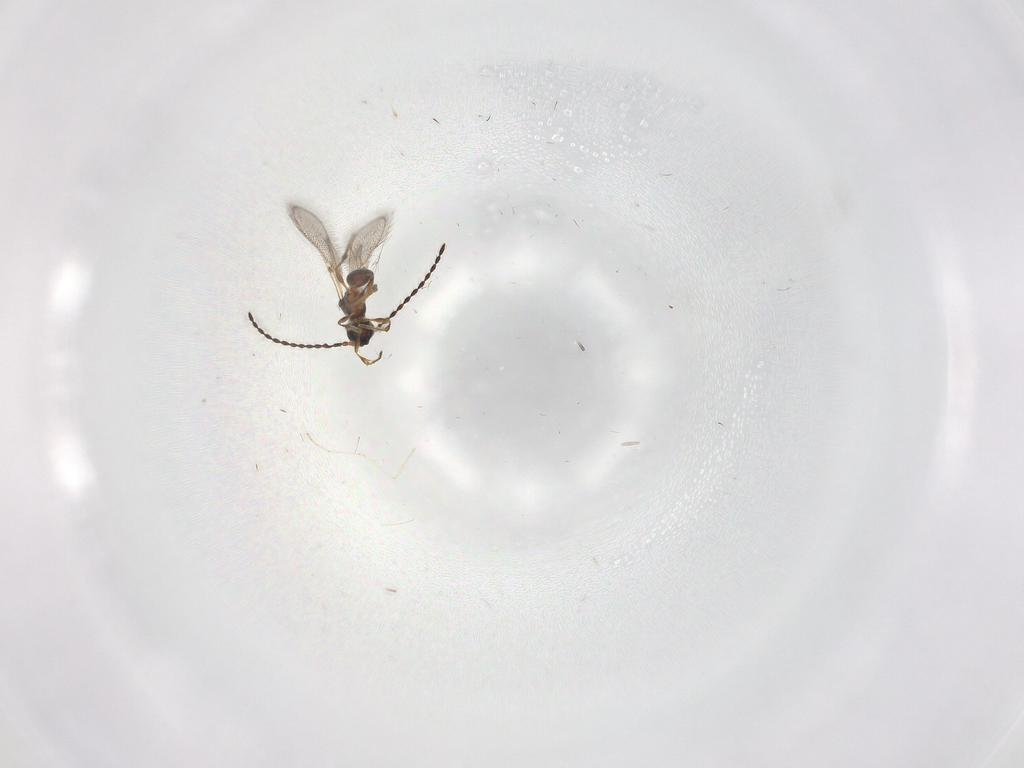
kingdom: Animalia
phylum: Arthropoda
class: Insecta
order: Hymenoptera
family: Diapriidae
